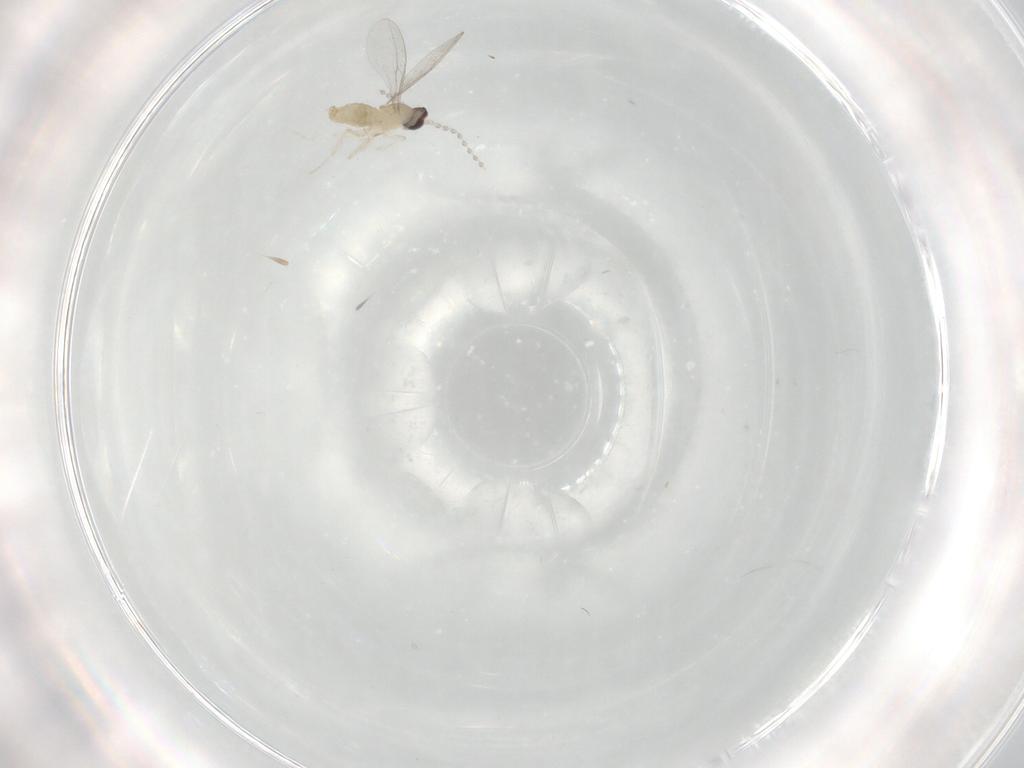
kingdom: Animalia
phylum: Arthropoda
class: Insecta
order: Diptera
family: Cecidomyiidae
